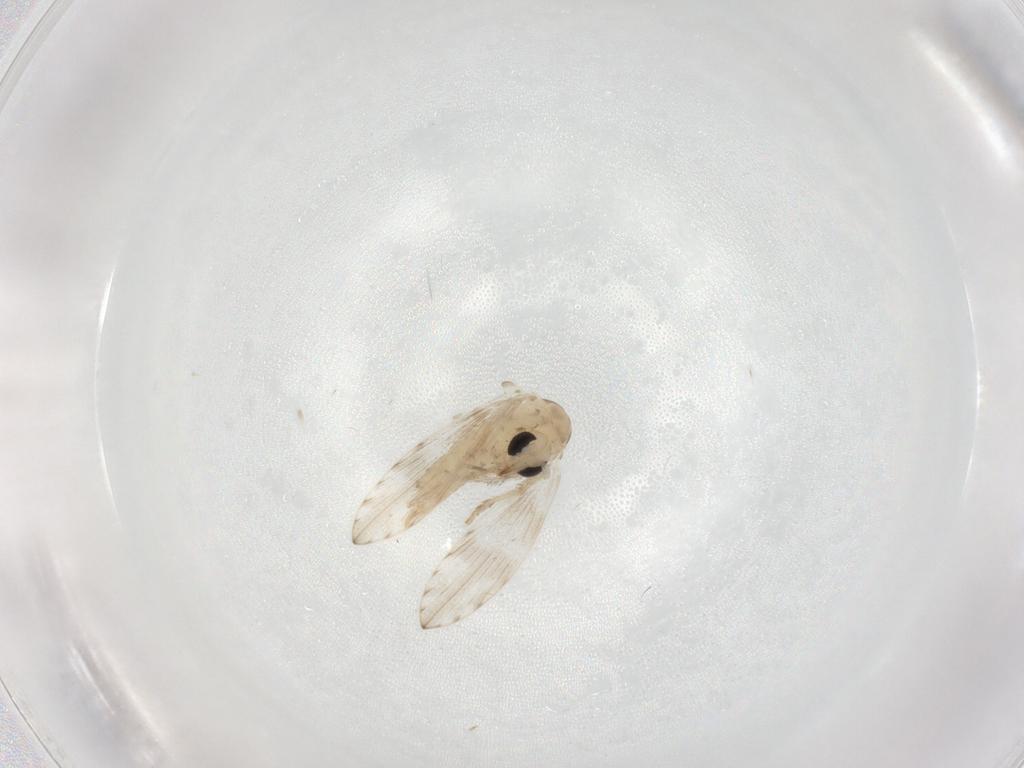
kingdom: Animalia
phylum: Arthropoda
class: Insecta
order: Diptera
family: Psychodidae
